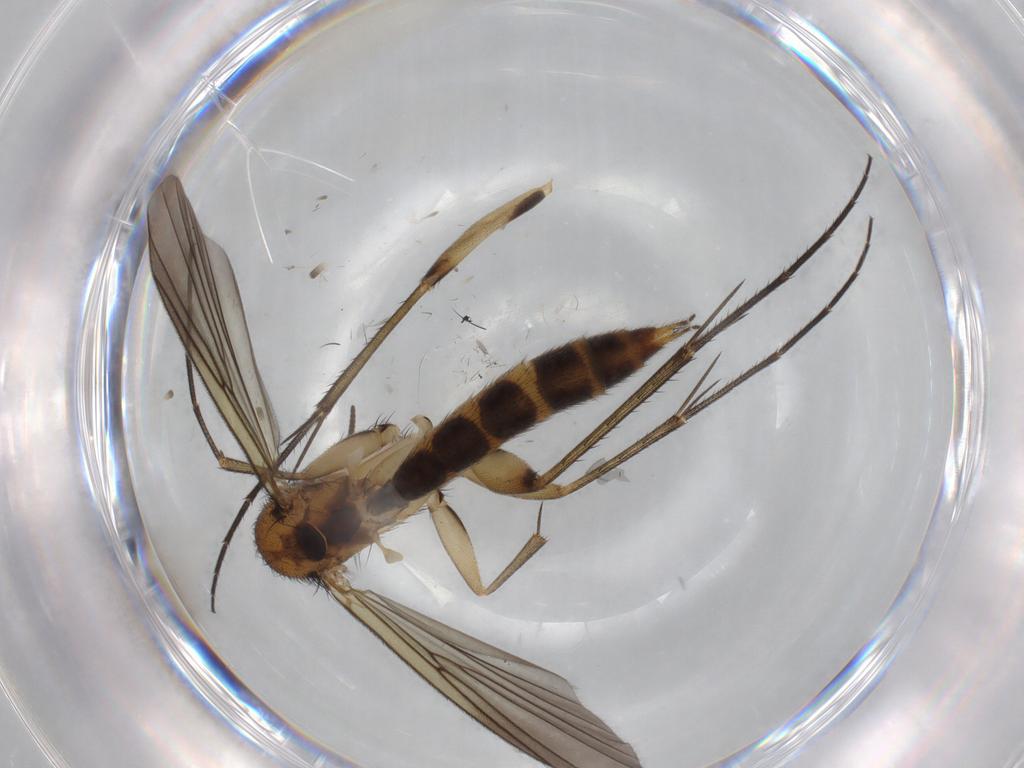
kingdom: Animalia
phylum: Arthropoda
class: Insecta
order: Diptera
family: Mycetophilidae
